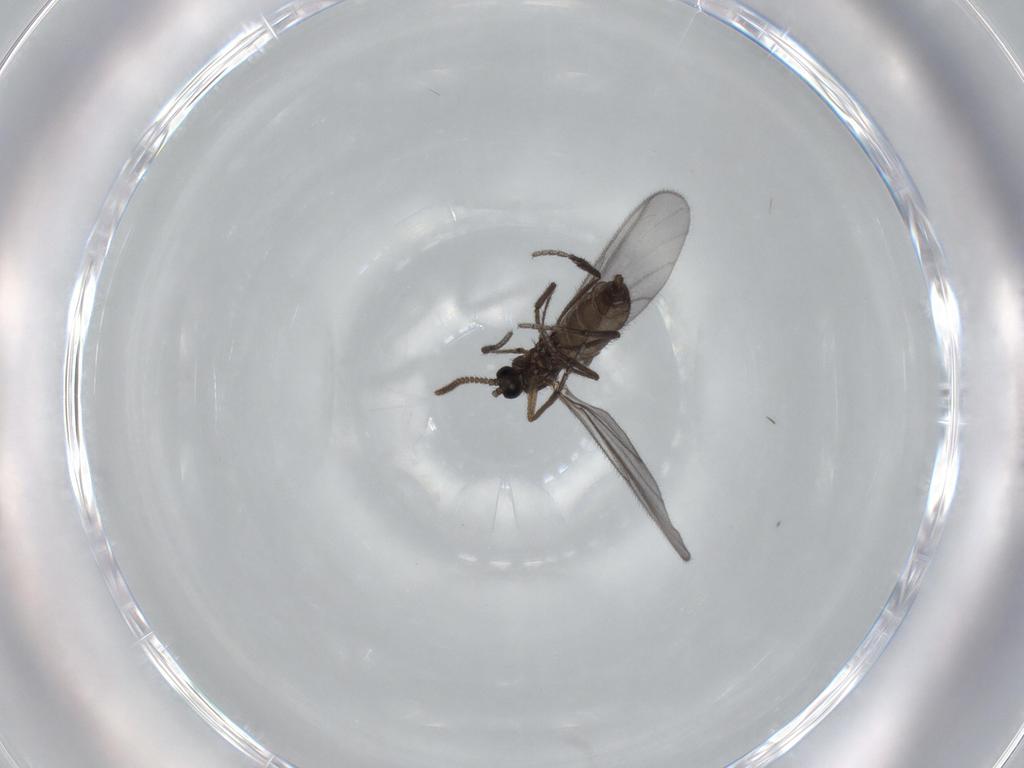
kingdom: Animalia
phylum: Arthropoda
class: Insecta
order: Diptera
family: Sciaridae
